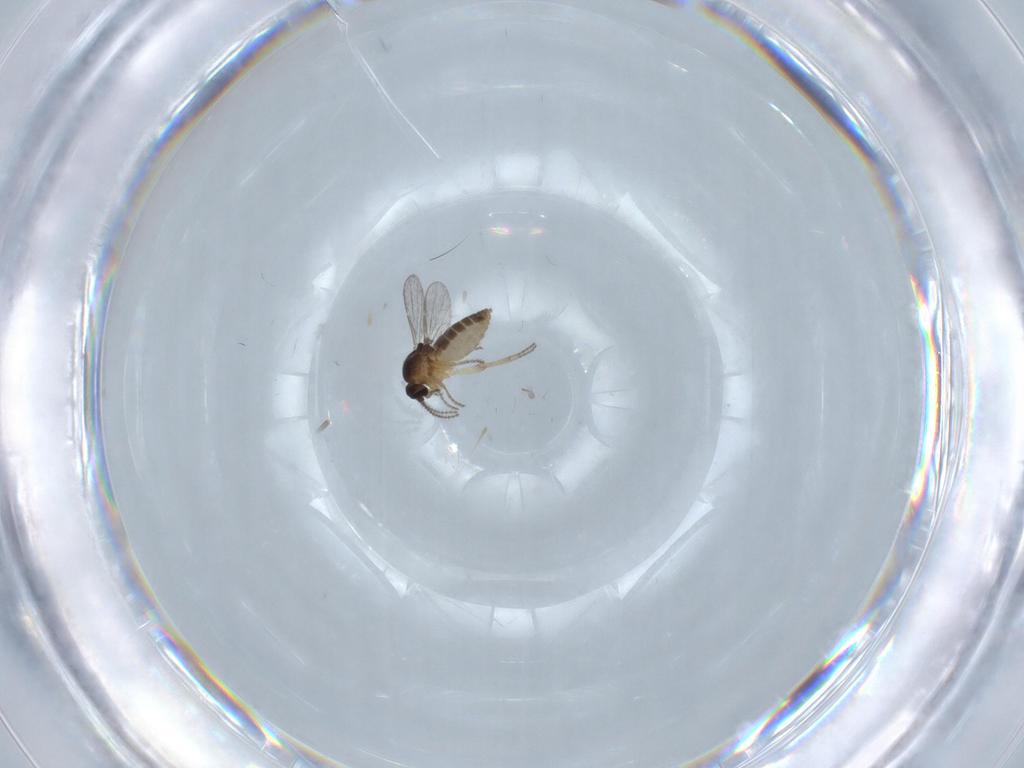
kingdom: Animalia
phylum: Arthropoda
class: Insecta
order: Diptera
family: Ceratopogonidae
